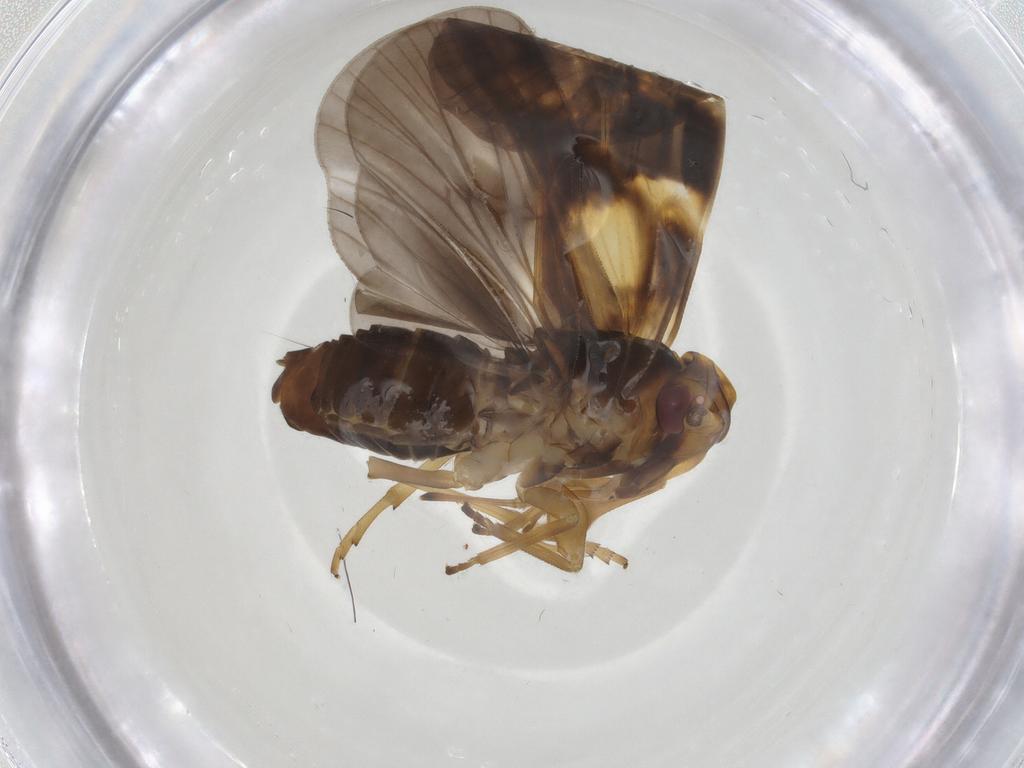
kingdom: Animalia
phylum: Arthropoda
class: Insecta
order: Hemiptera
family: Cixiidae
